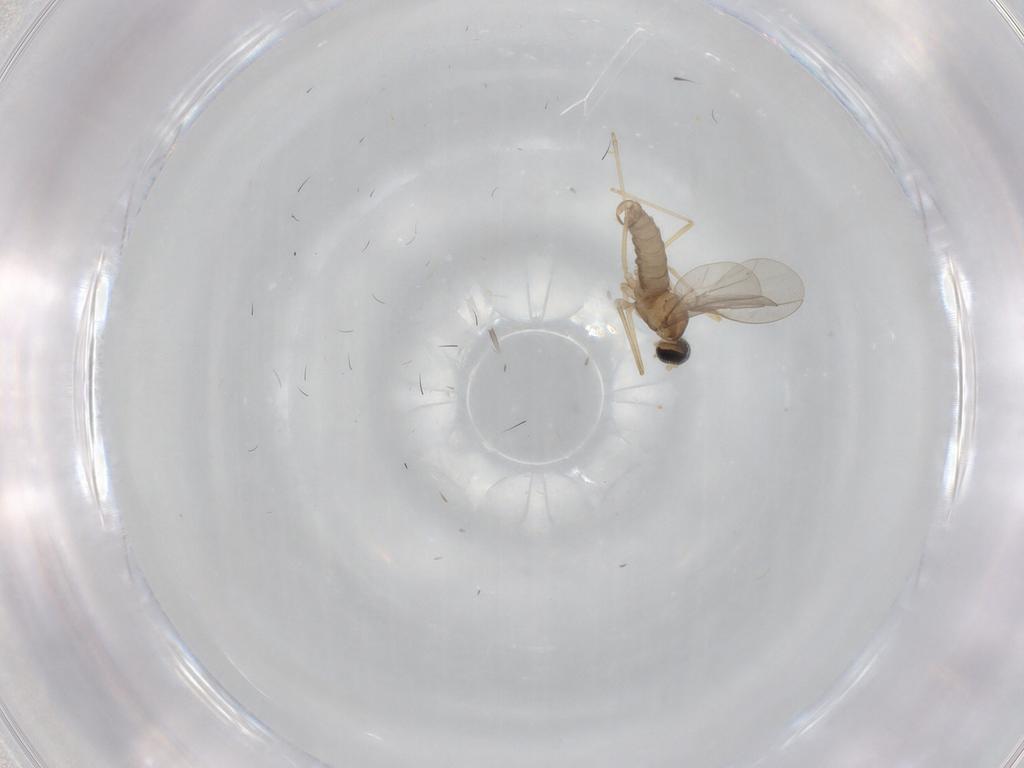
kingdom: Animalia
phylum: Arthropoda
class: Insecta
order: Diptera
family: Cecidomyiidae
